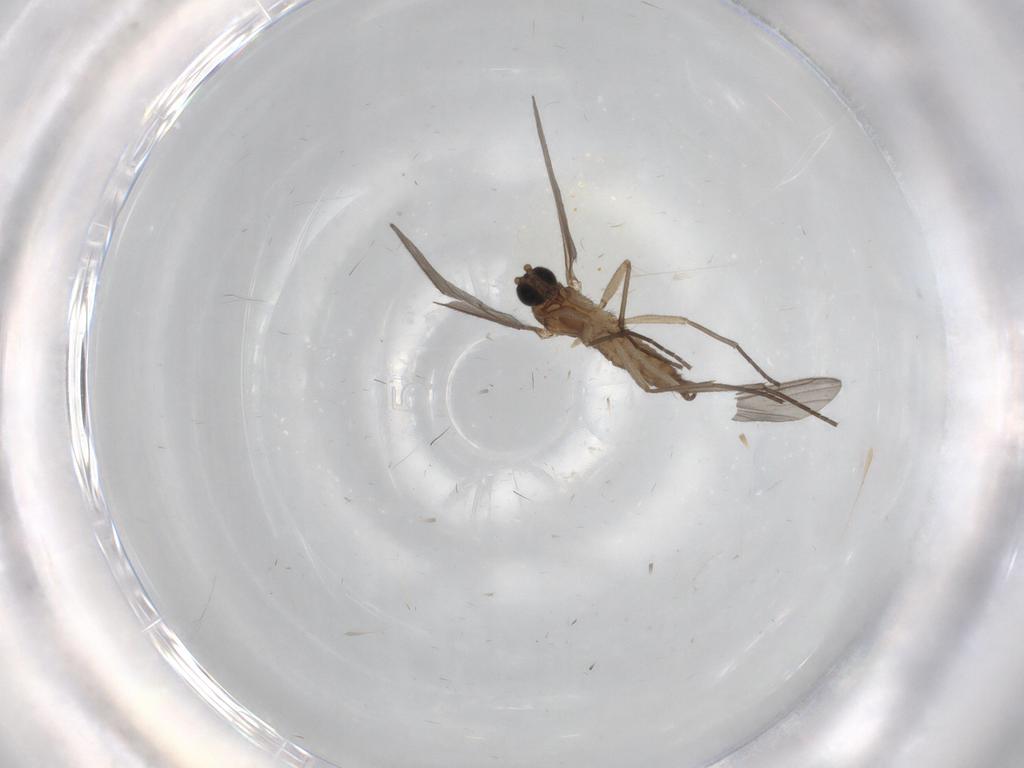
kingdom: Animalia
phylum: Arthropoda
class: Insecta
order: Diptera
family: Sciaridae
